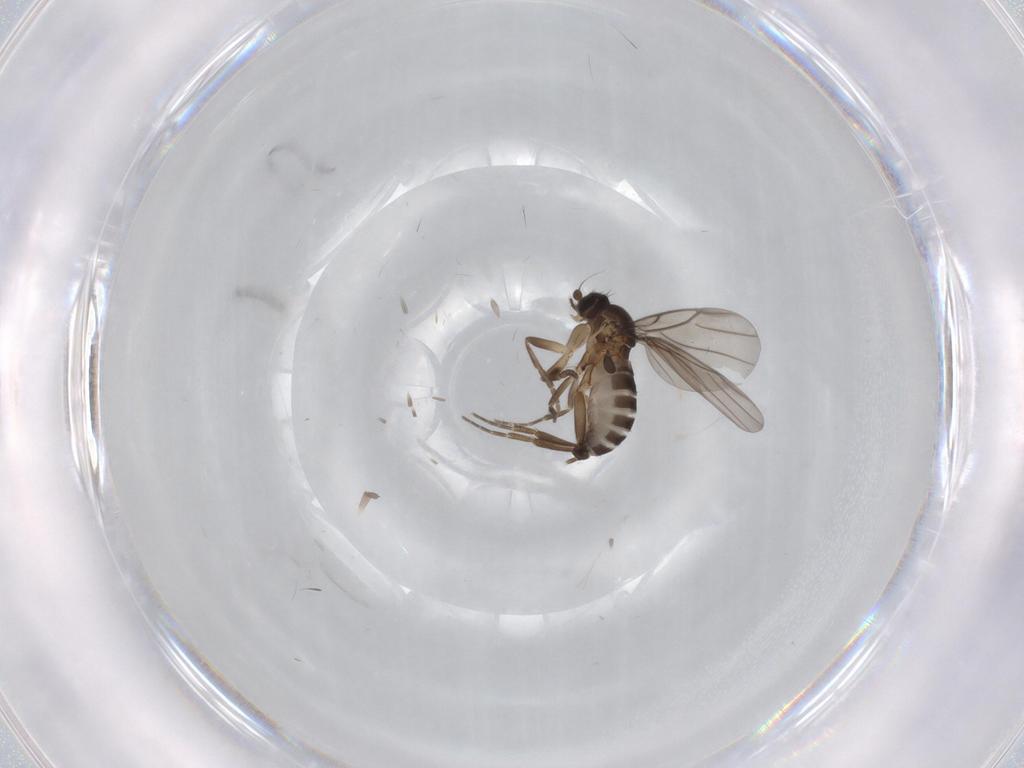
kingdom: Animalia
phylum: Arthropoda
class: Insecta
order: Diptera
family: Phoridae
